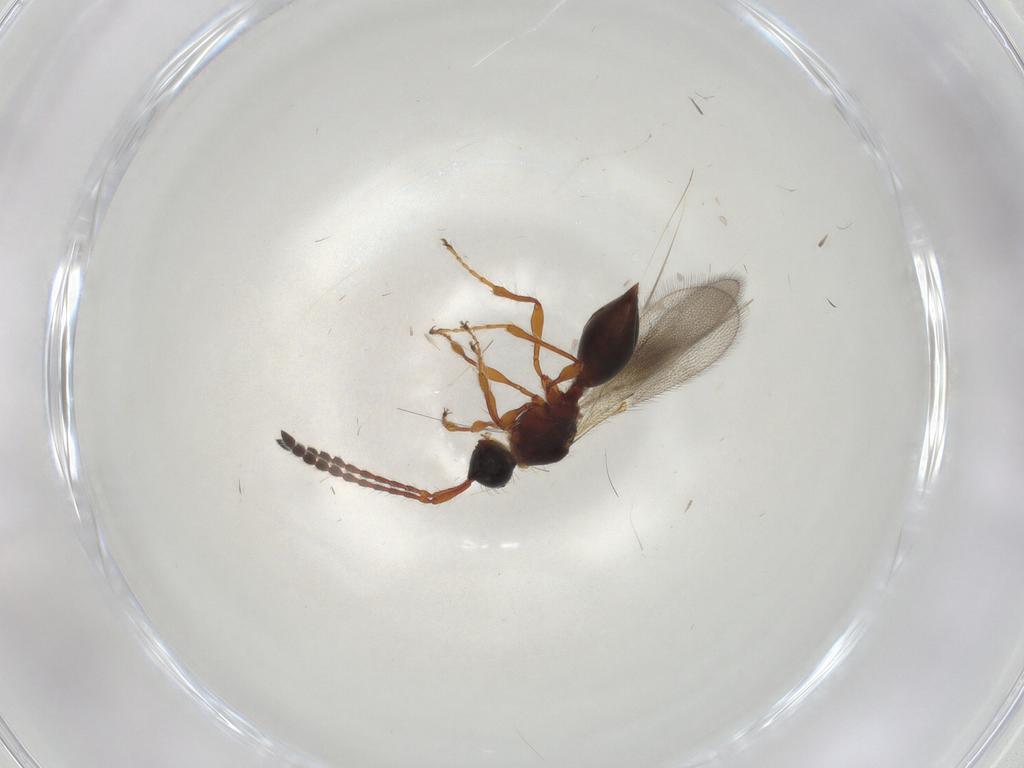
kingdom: Animalia
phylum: Arthropoda
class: Insecta
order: Hymenoptera
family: Diapriidae
